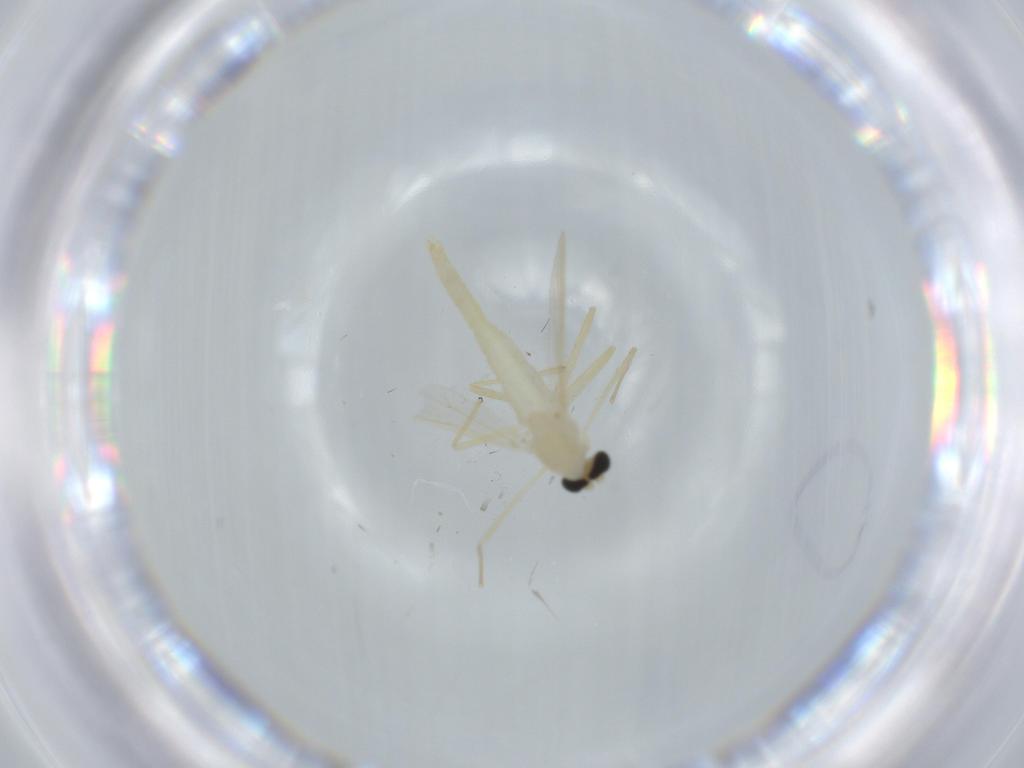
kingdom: Animalia
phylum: Arthropoda
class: Insecta
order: Diptera
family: Chironomidae
